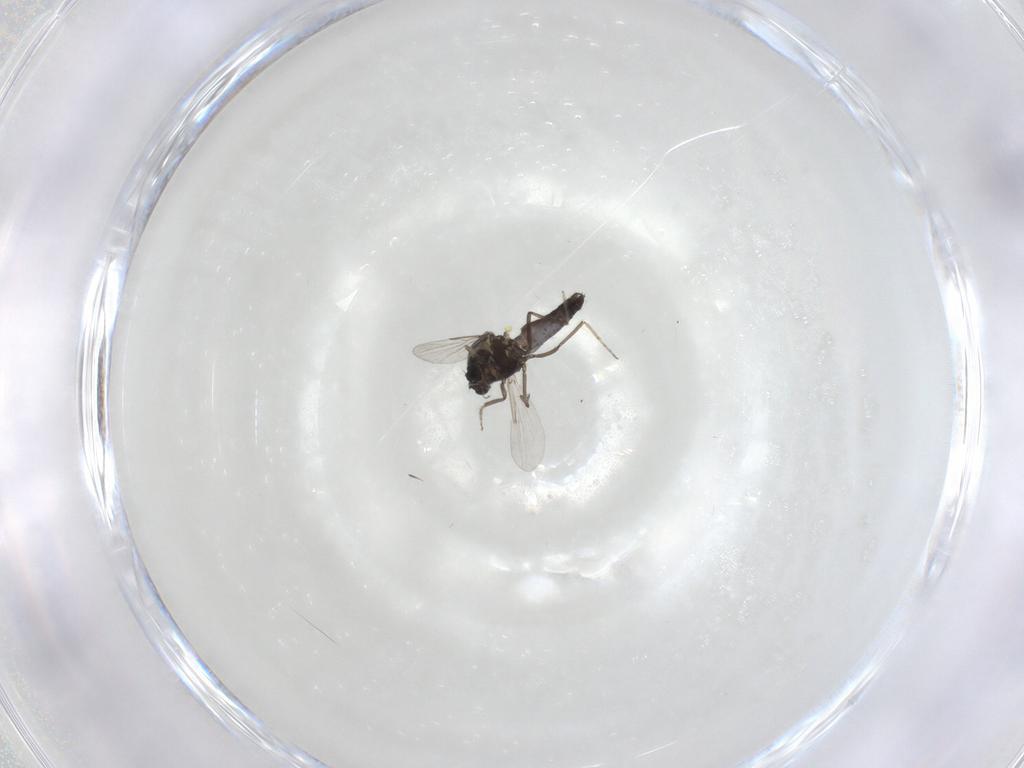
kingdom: Animalia
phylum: Arthropoda
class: Insecta
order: Diptera
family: Ceratopogonidae
